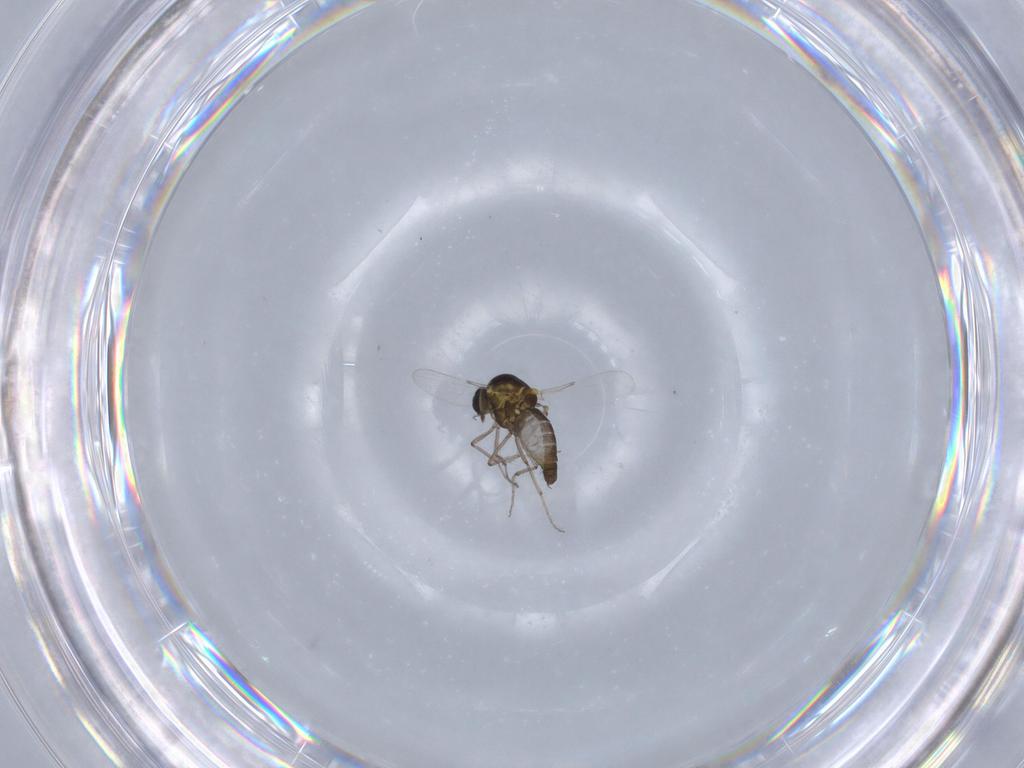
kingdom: Animalia
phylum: Arthropoda
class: Insecta
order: Diptera
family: Ceratopogonidae
